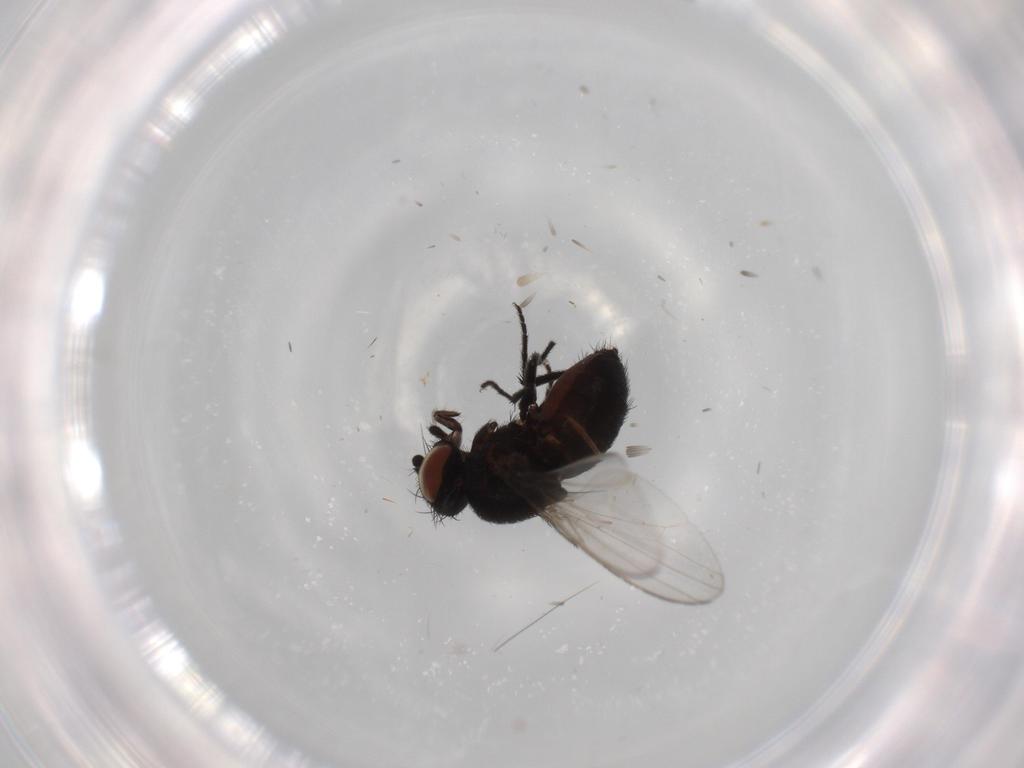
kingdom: Animalia
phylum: Arthropoda
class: Insecta
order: Diptera
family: Milichiidae
